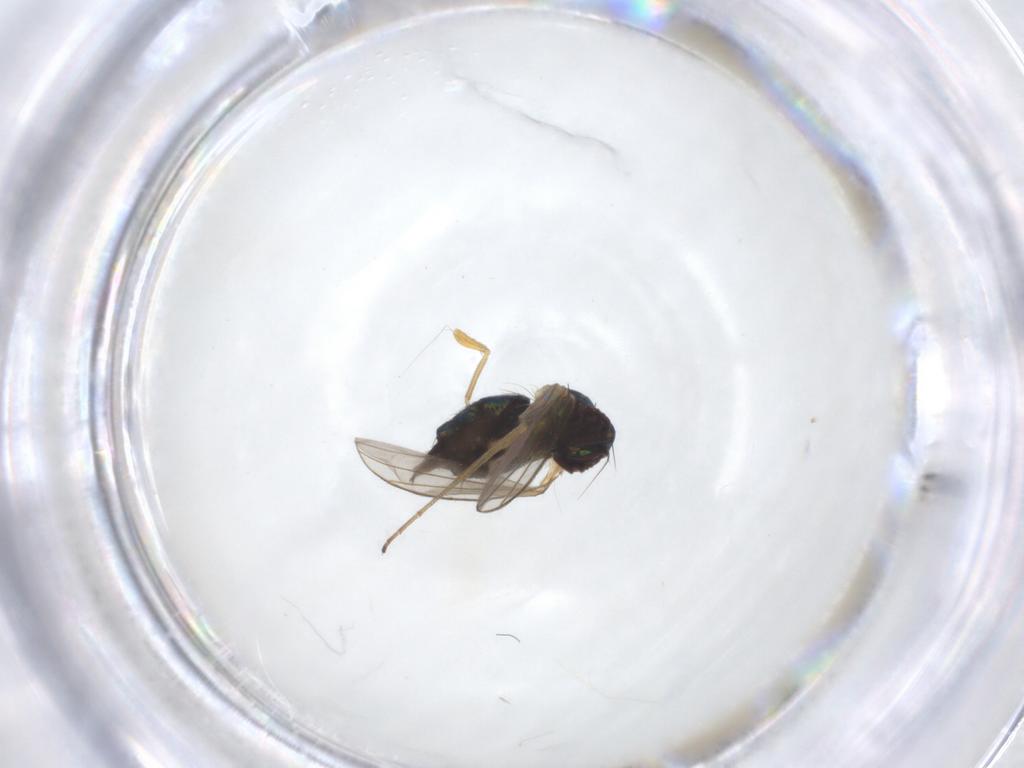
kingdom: Animalia
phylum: Arthropoda
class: Insecta
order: Diptera
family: Dolichopodidae
